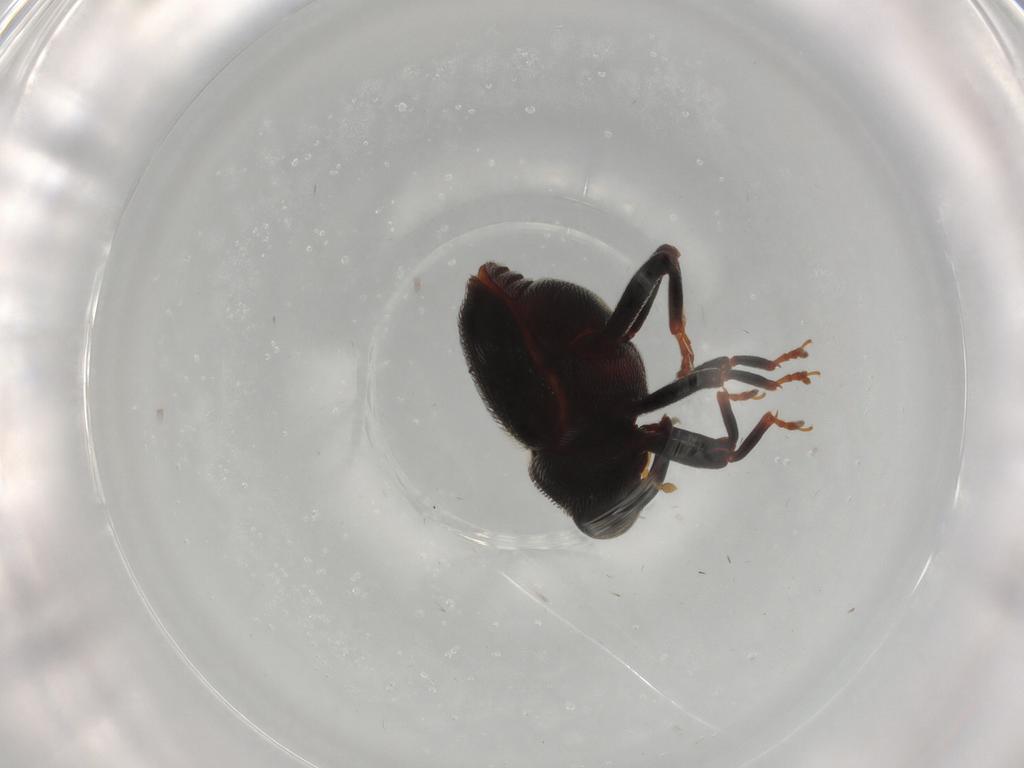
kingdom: Animalia
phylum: Arthropoda
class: Insecta
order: Coleoptera
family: Curculionidae
